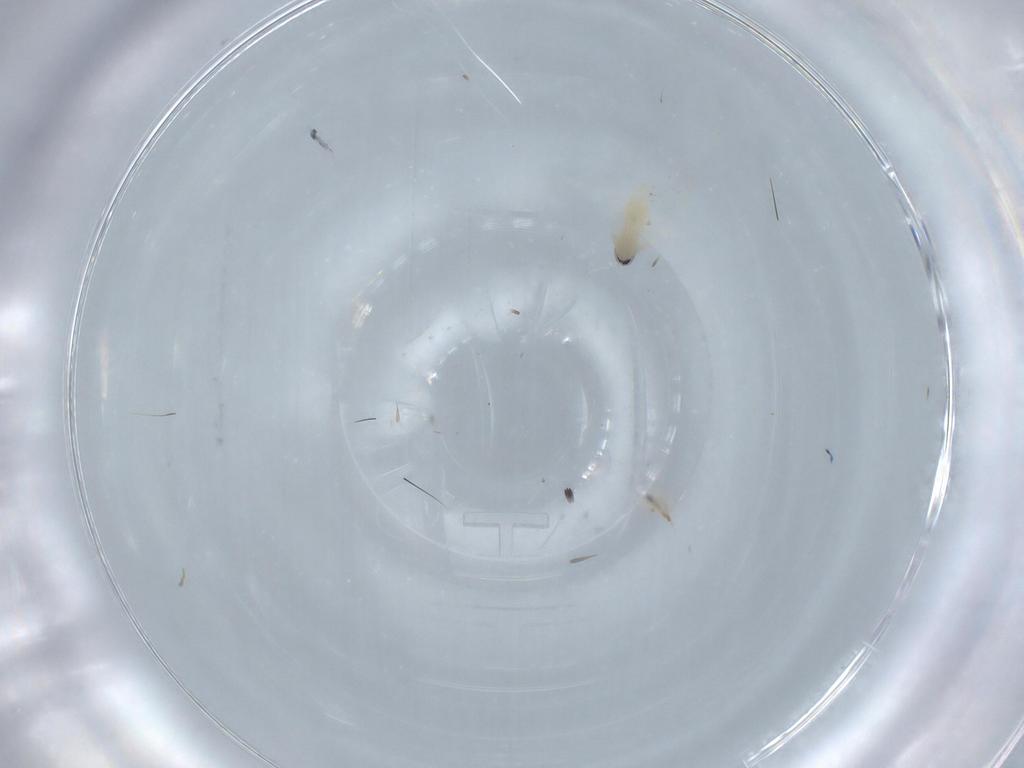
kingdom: Animalia
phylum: Arthropoda
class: Insecta
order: Diptera
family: Cecidomyiidae
